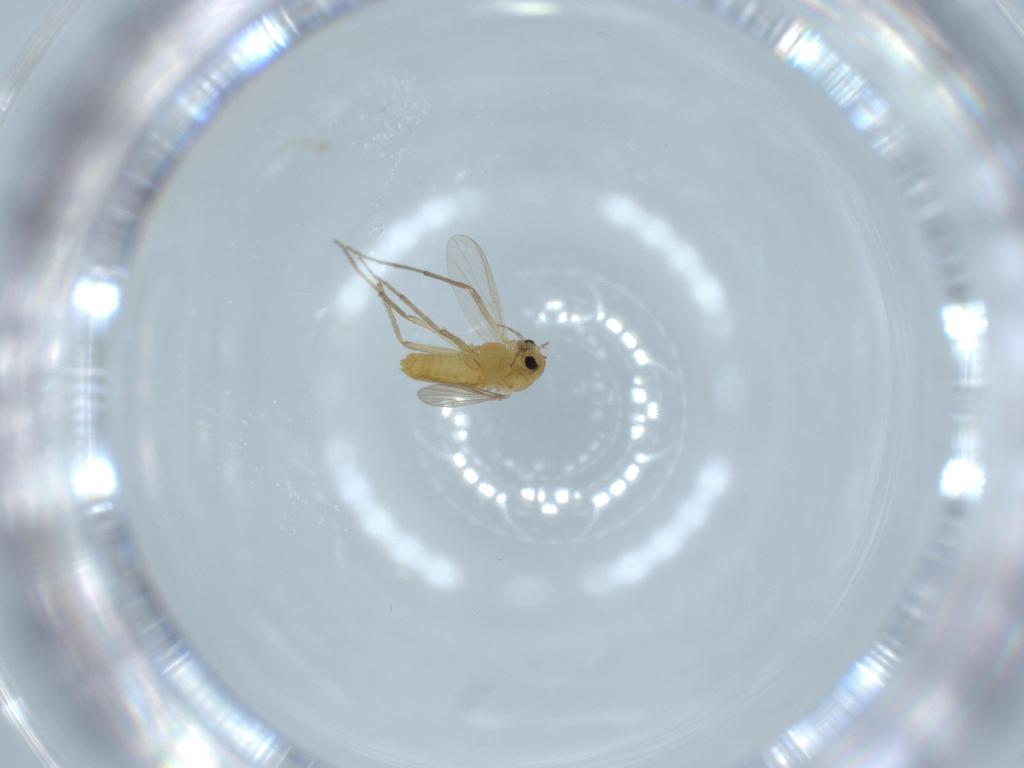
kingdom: Animalia
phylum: Arthropoda
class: Insecta
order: Diptera
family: Chironomidae
